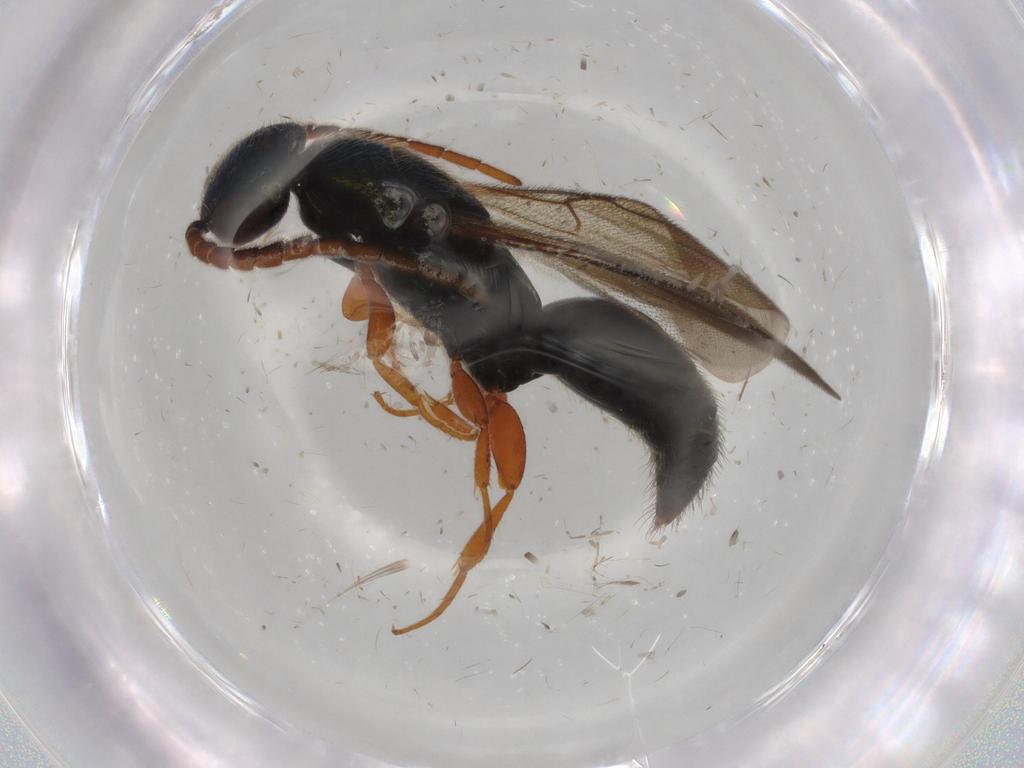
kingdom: Animalia
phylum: Arthropoda
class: Insecta
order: Hymenoptera
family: Bethylidae
